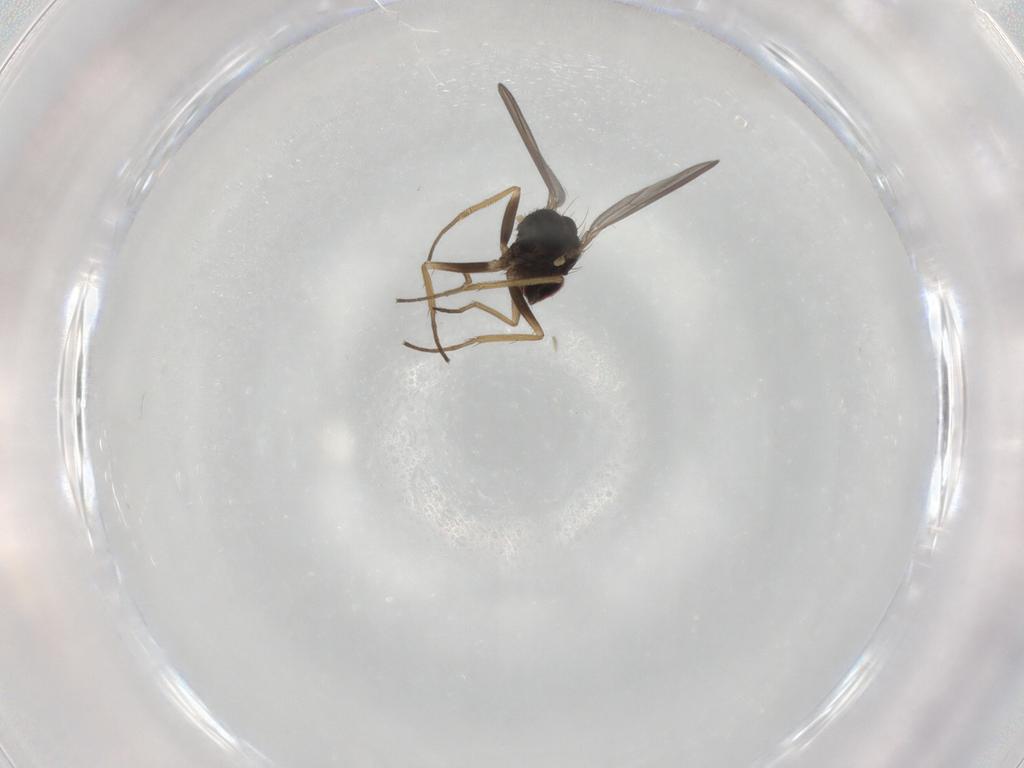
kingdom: Animalia
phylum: Arthropoda
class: Insecta
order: Diptera
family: Dolichopodidae
